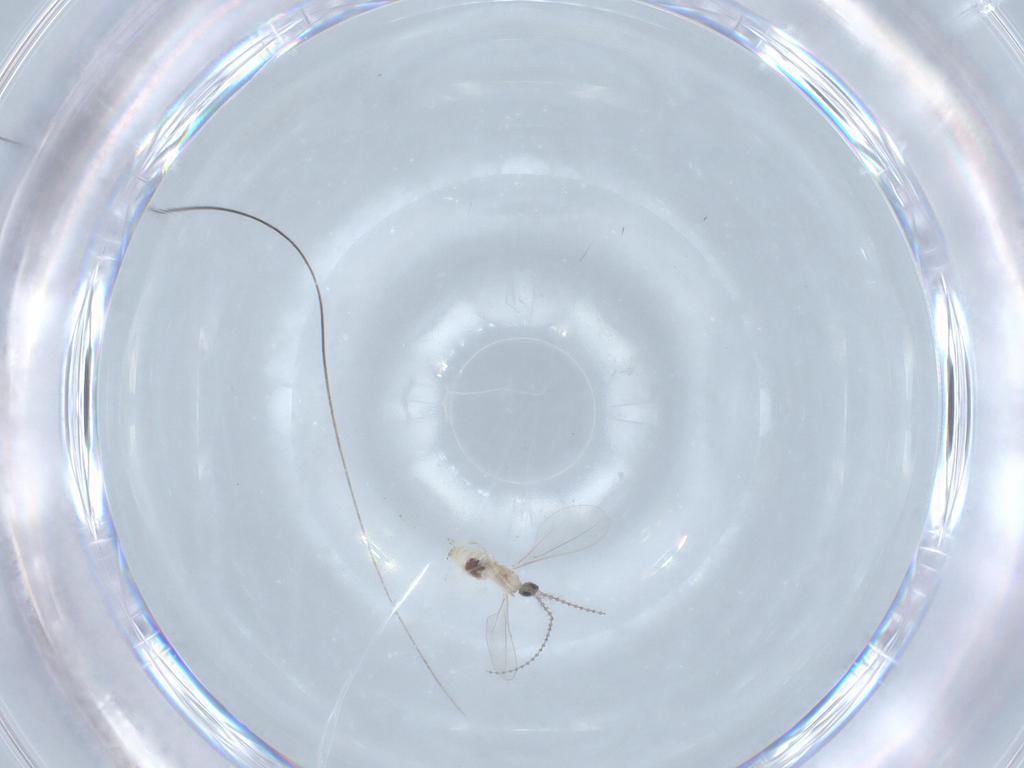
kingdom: Animalia
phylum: Arthropoda
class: Insecta
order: Diptera
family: Cecidomyiidae
